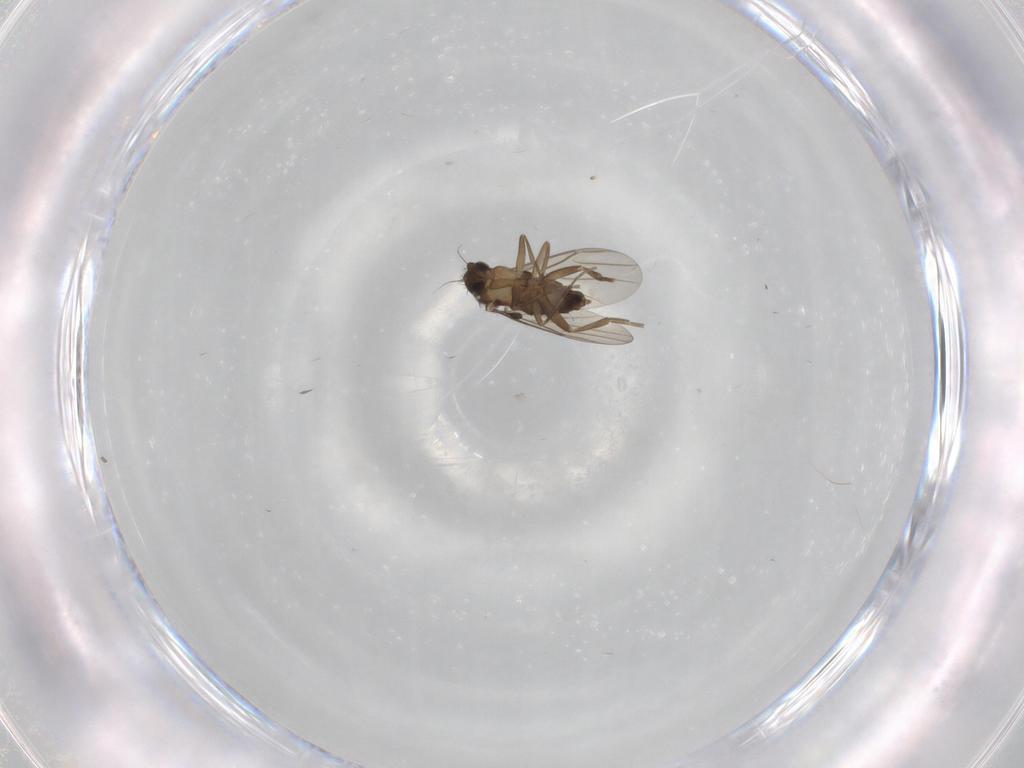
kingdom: Animalia
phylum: Arthropoda
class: Insecta
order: Diptera
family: Phoridae
